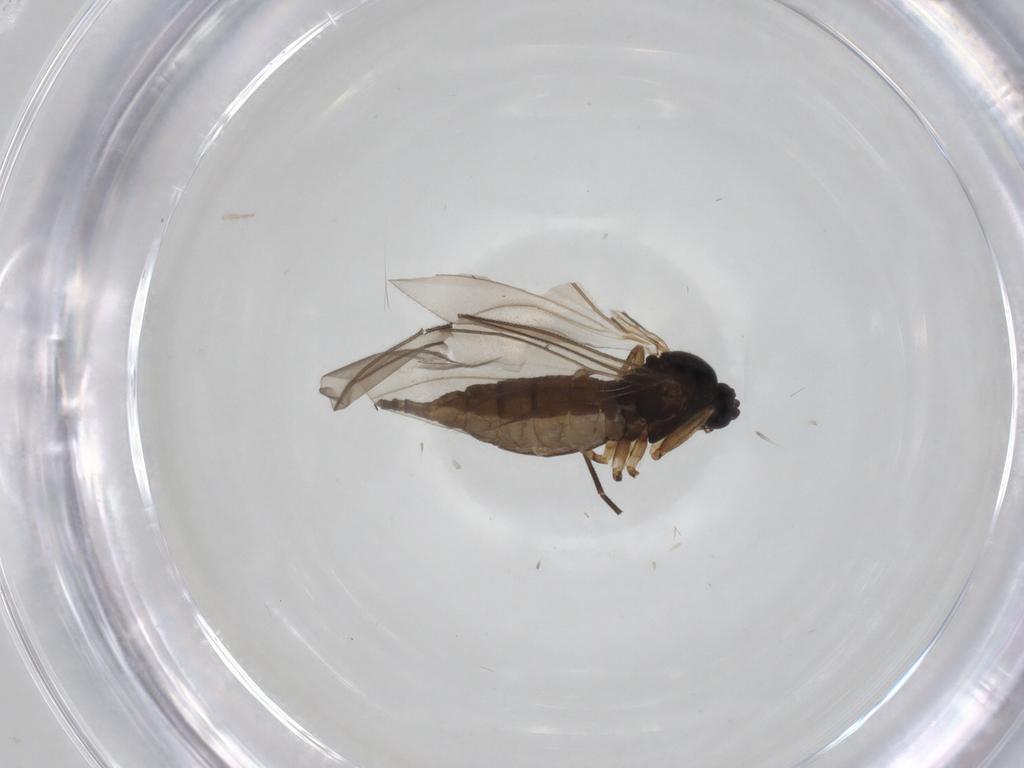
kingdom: Animalia
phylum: Arthropoda
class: Insecta
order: Diptera
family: Sciaridae
